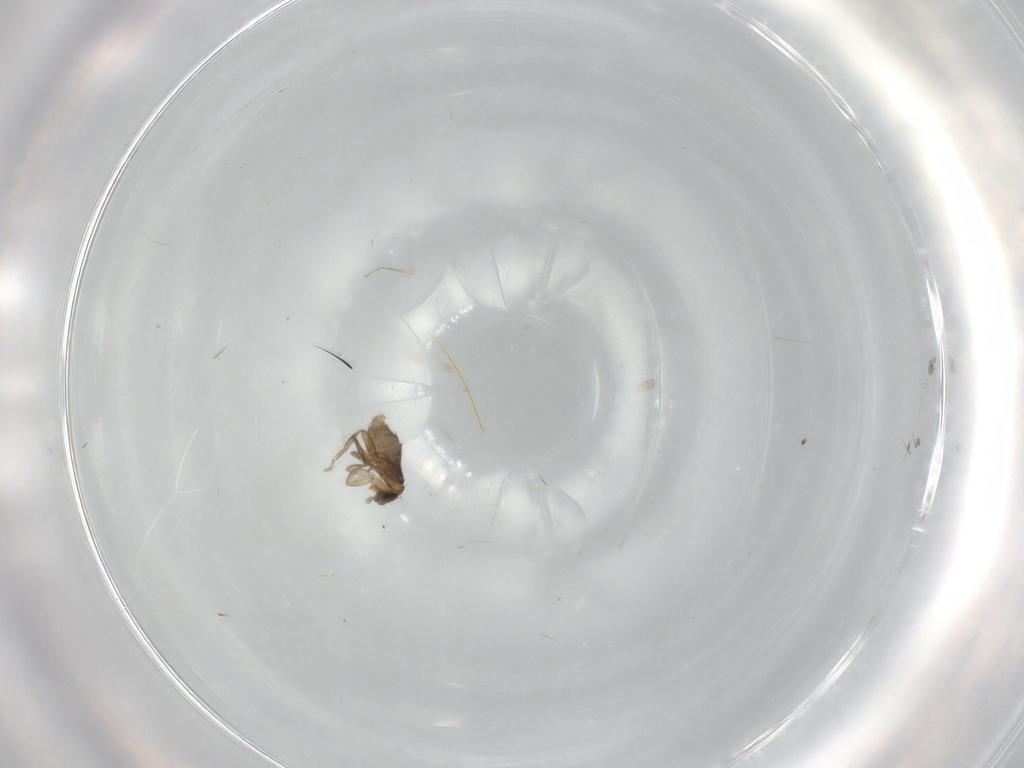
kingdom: Animalia
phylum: Arthropoda
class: Insecta
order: Diptera
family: Cecidomyiidae
